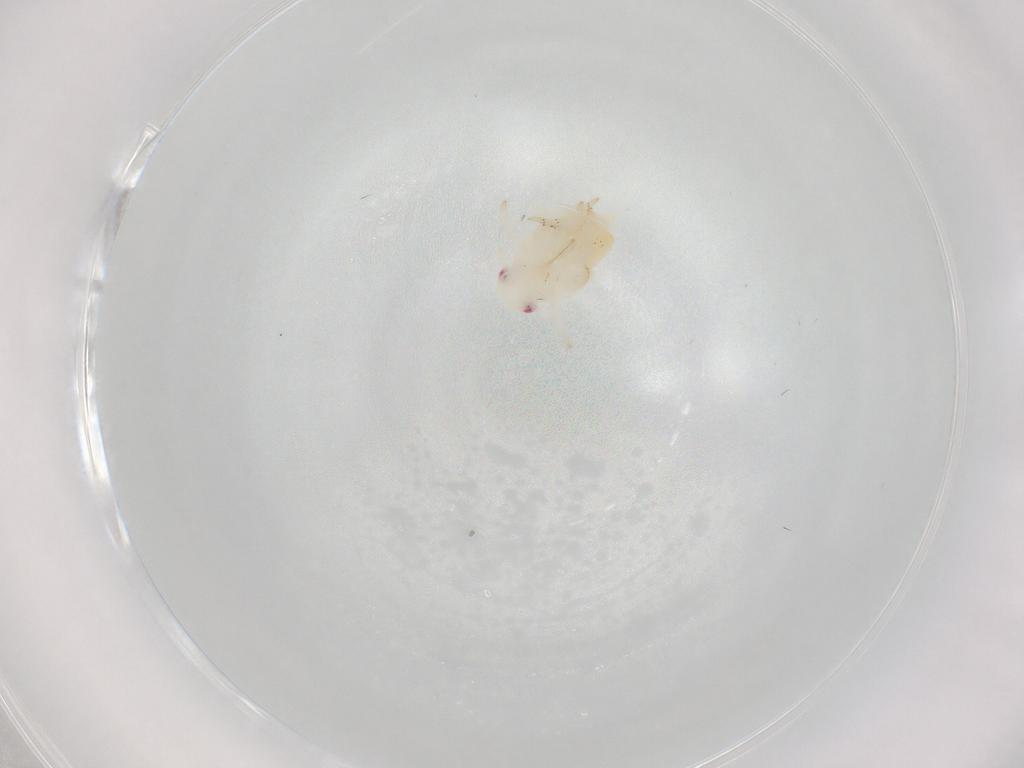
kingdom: Animalia
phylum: Arthropoda
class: Insecta
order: Hemiptera
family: Flatidae
